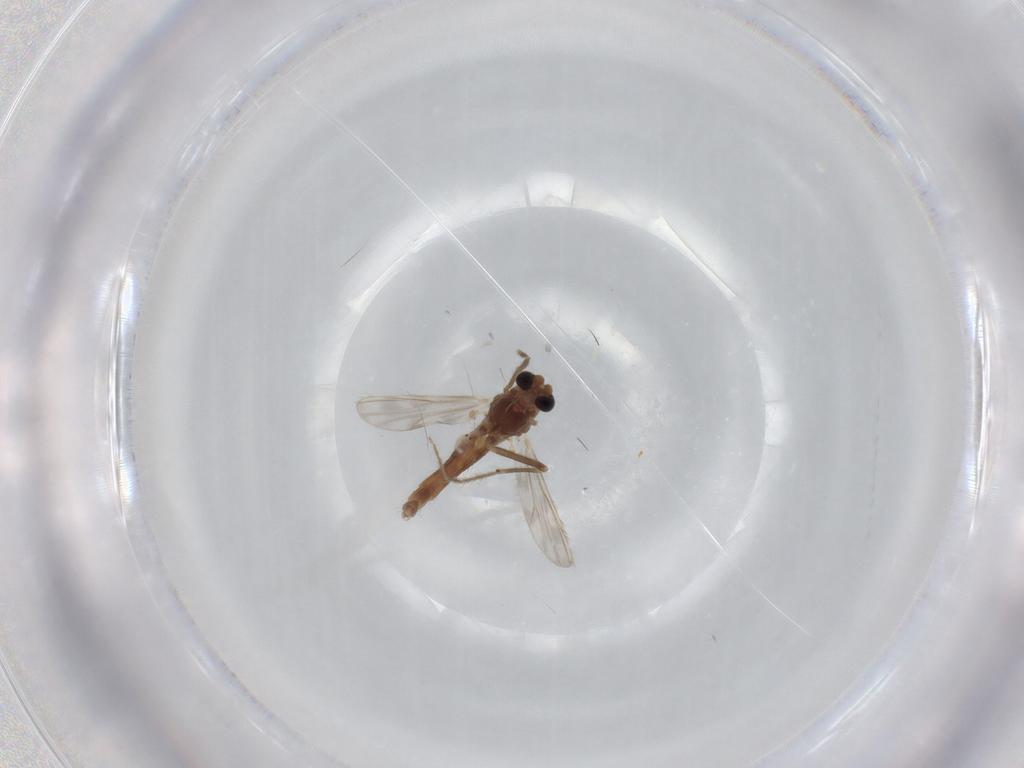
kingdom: Animalia
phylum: Arthropoda
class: Insecta
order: Diptera
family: Chironomidae
